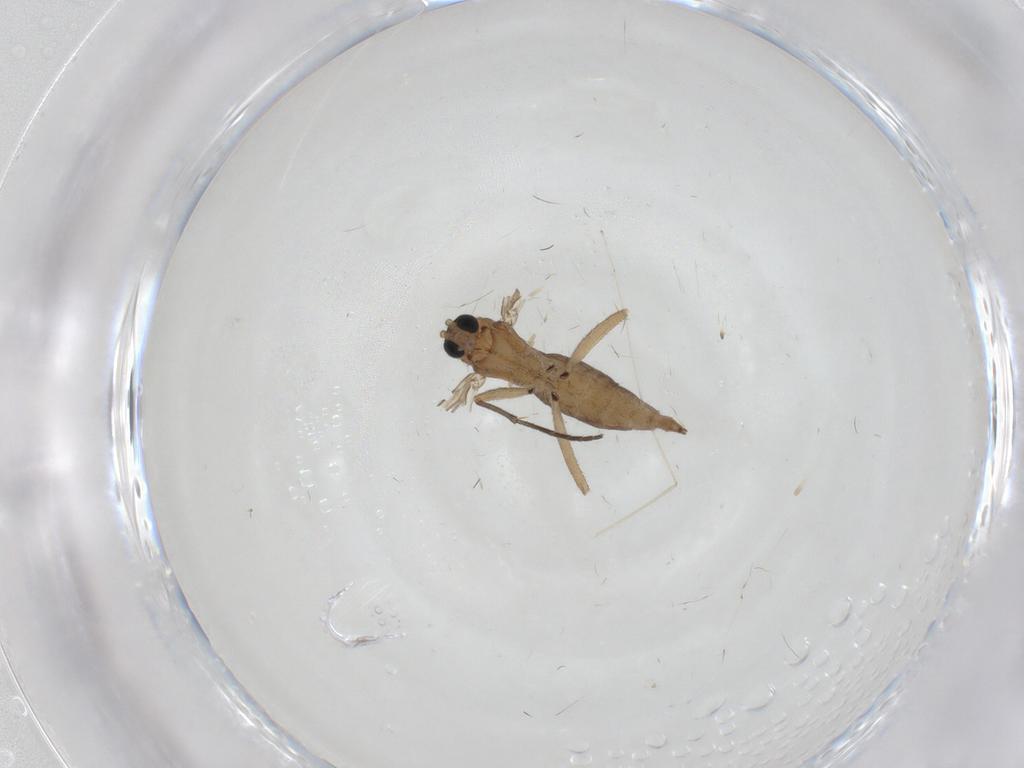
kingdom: Animalia
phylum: Arthropoda
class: Insecta
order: Diptera
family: Sciaridae
